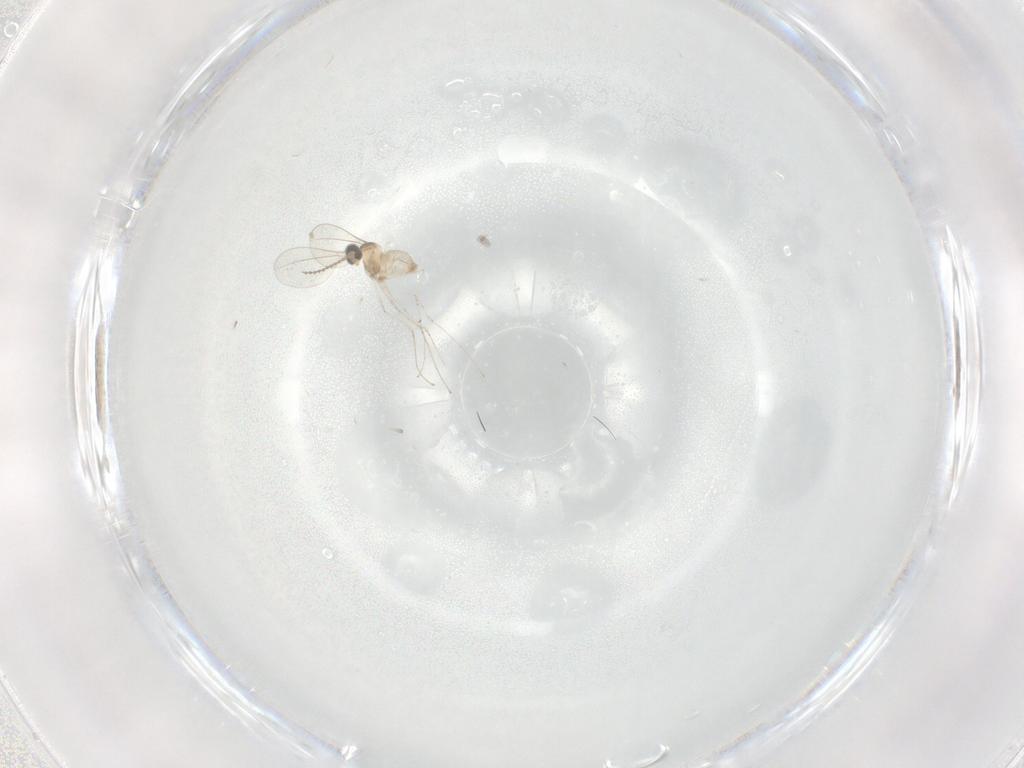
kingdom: Animalia
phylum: Arthropoda
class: Insecta
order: Diptera
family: Cecidomyiidae
